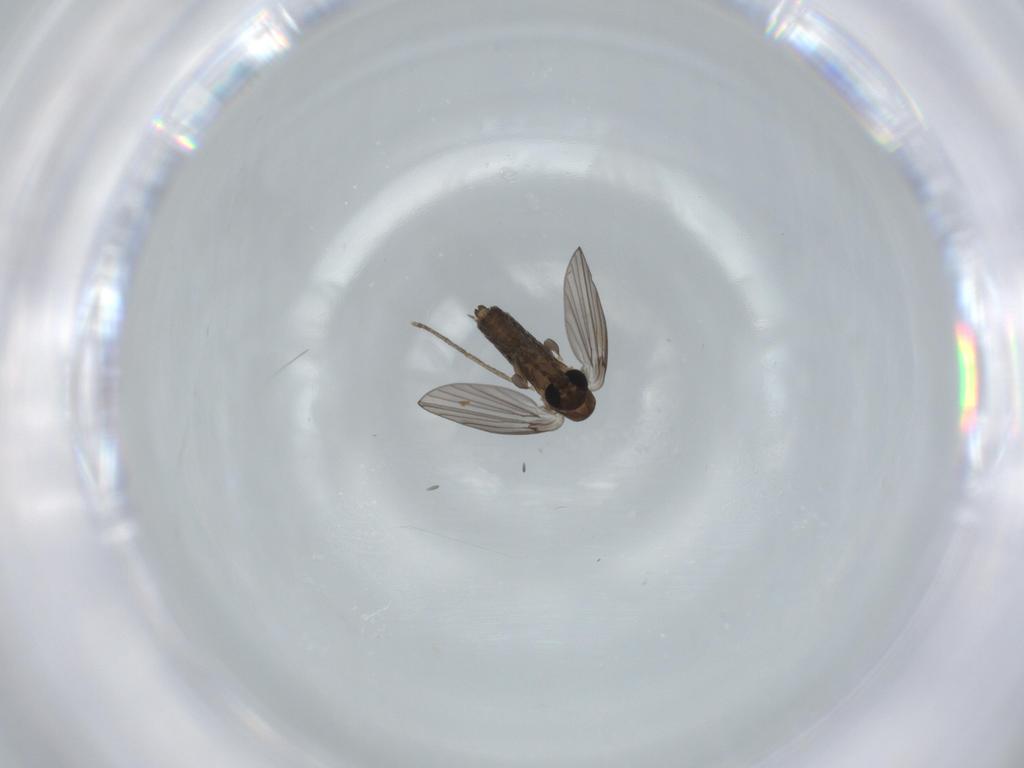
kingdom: Animalia
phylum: Arthropoda
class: Insecta
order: Diptera
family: Psychodidae
